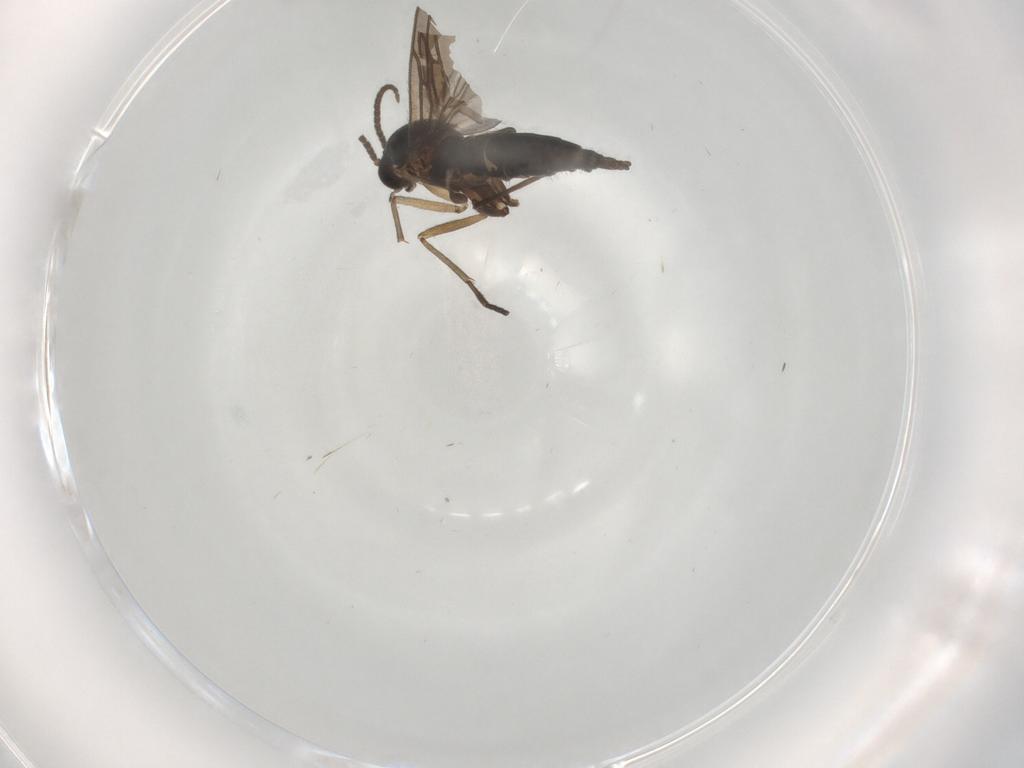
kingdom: Animalia
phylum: Arthropoda
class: Insecta
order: Diptera
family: Sciaridae
